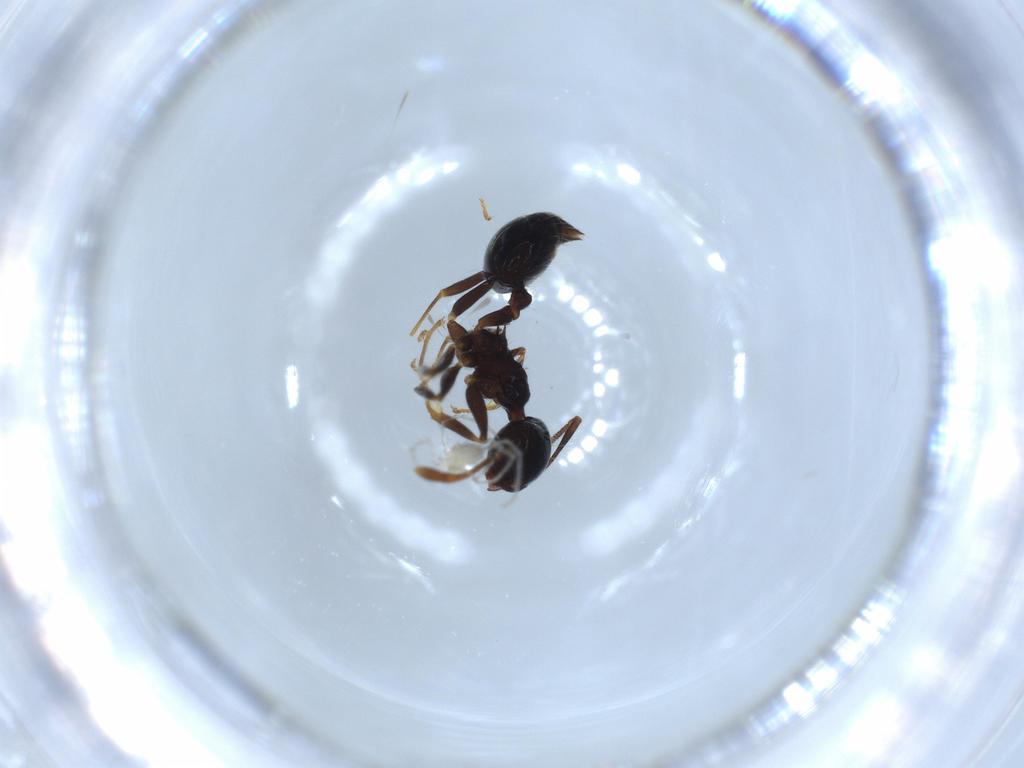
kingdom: Animalia
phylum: Arthropoda
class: Insecta
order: Hymenoptera
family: Formicidae
